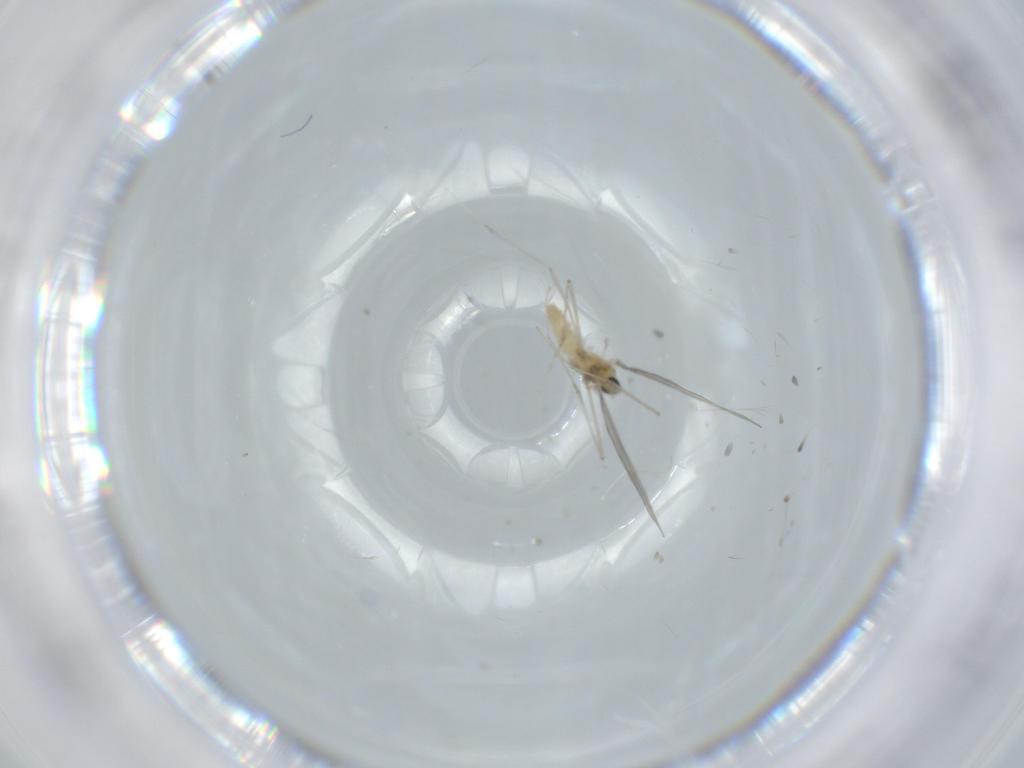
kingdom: Animalia
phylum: Arthropoda
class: Insecta
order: Diptera
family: Cecidomyiidae
